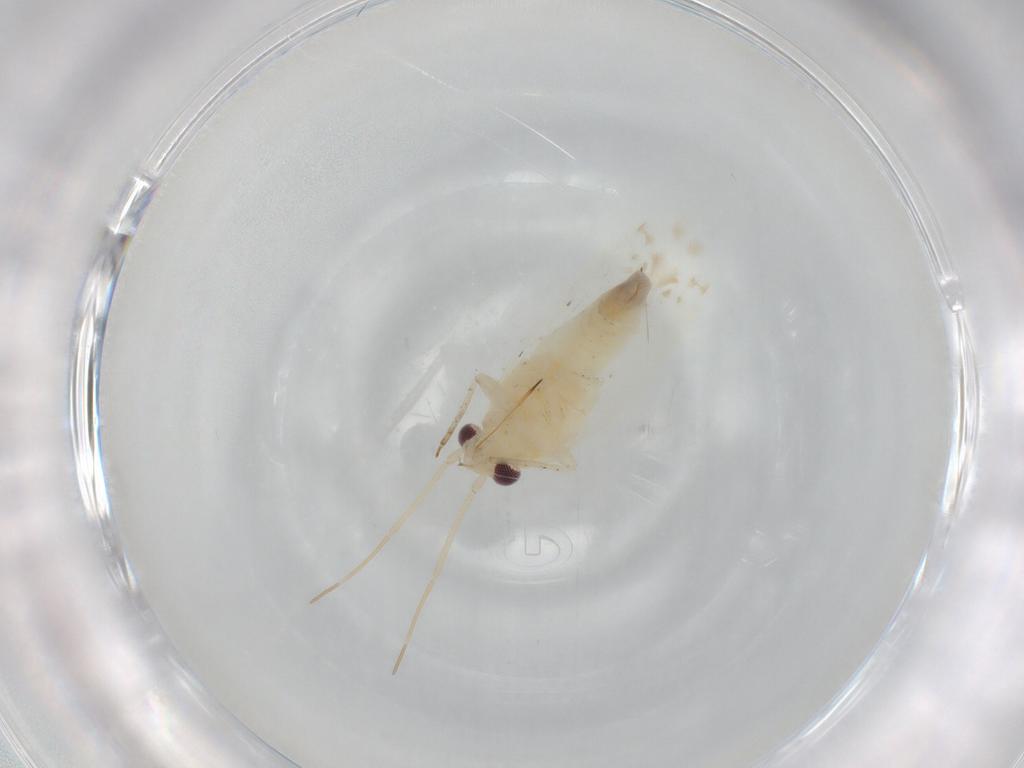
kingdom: Animalia
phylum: Arthropoda
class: Insecta
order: Hemiptera
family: Miridae
